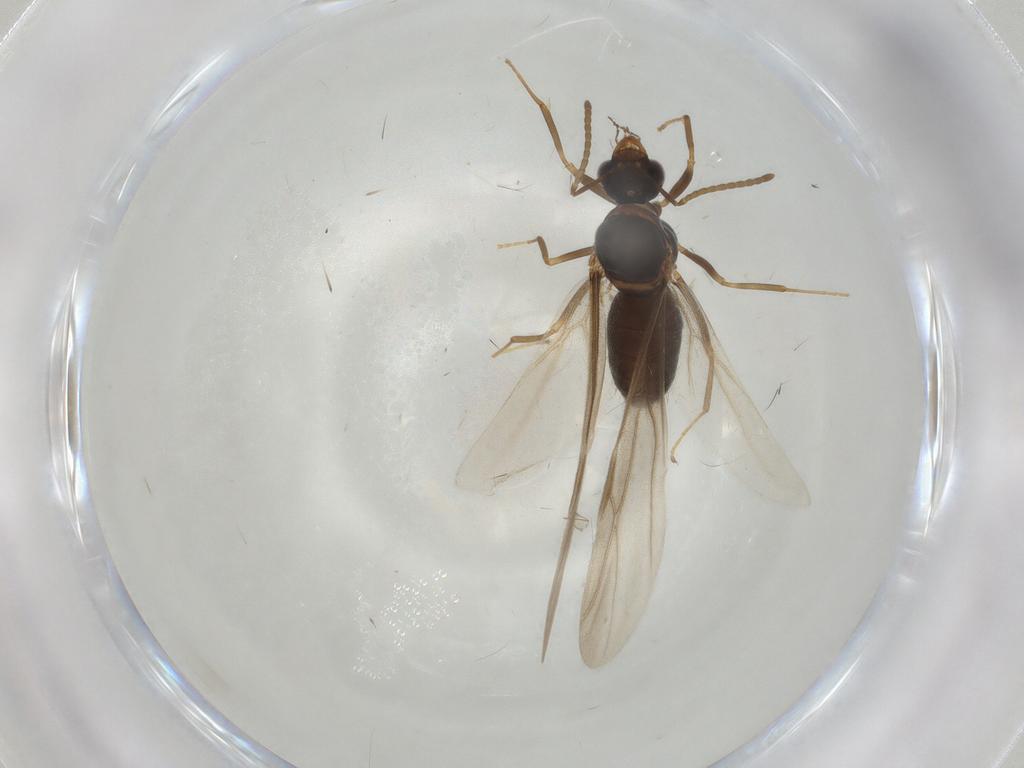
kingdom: Animalia
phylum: Arthropoda
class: Insecta
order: Hymenoptera
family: Formicidae
